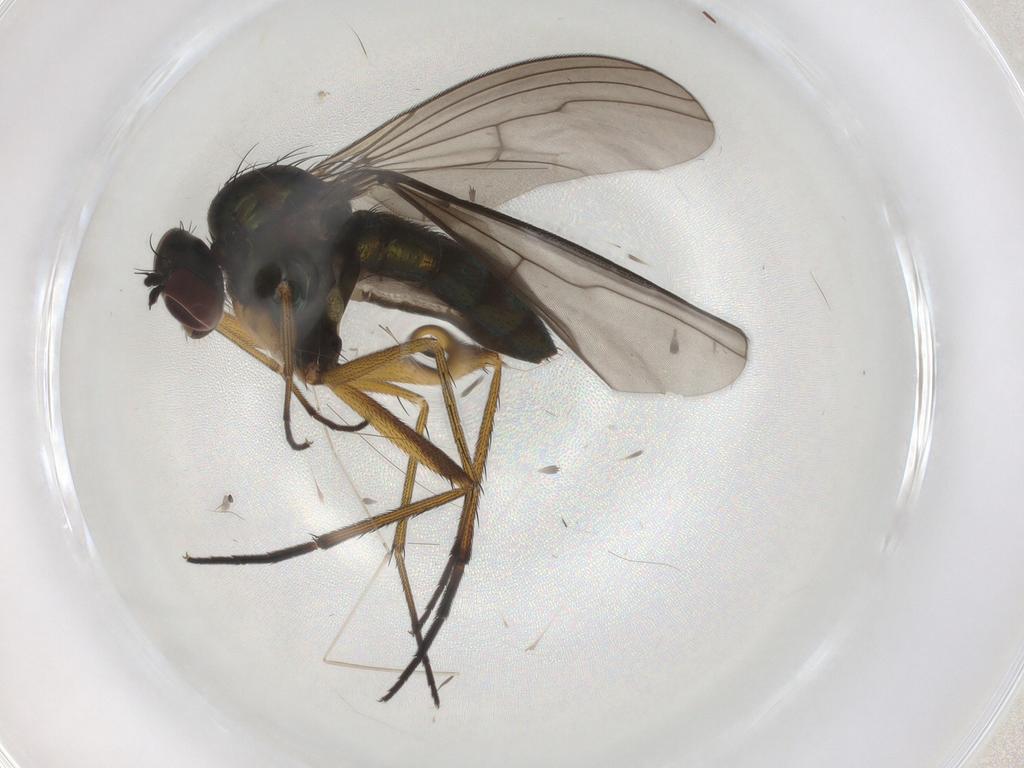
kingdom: Animalia
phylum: Arthropoda
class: Insecta
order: Diptera
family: Dolichopodidae
